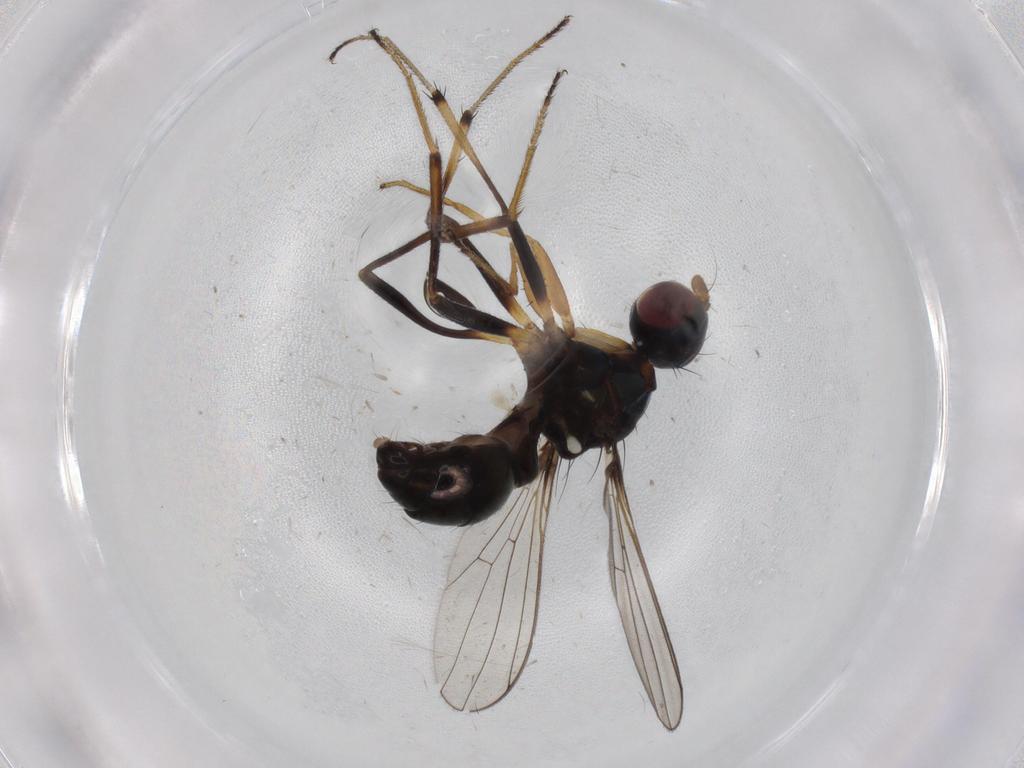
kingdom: Animalia
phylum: Arthropoda
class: Insecta
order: Diptera
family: Sepsidae
